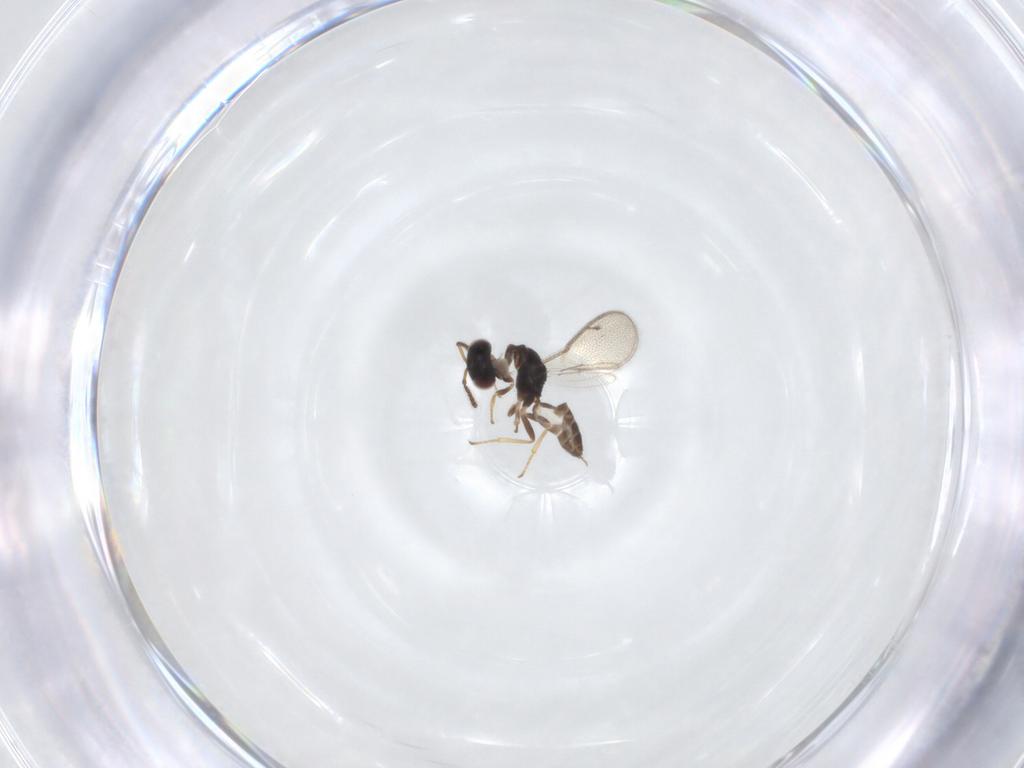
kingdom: Animalia
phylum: Arthropoda
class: Insecta
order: Hymenoptera
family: Pteromalidae
